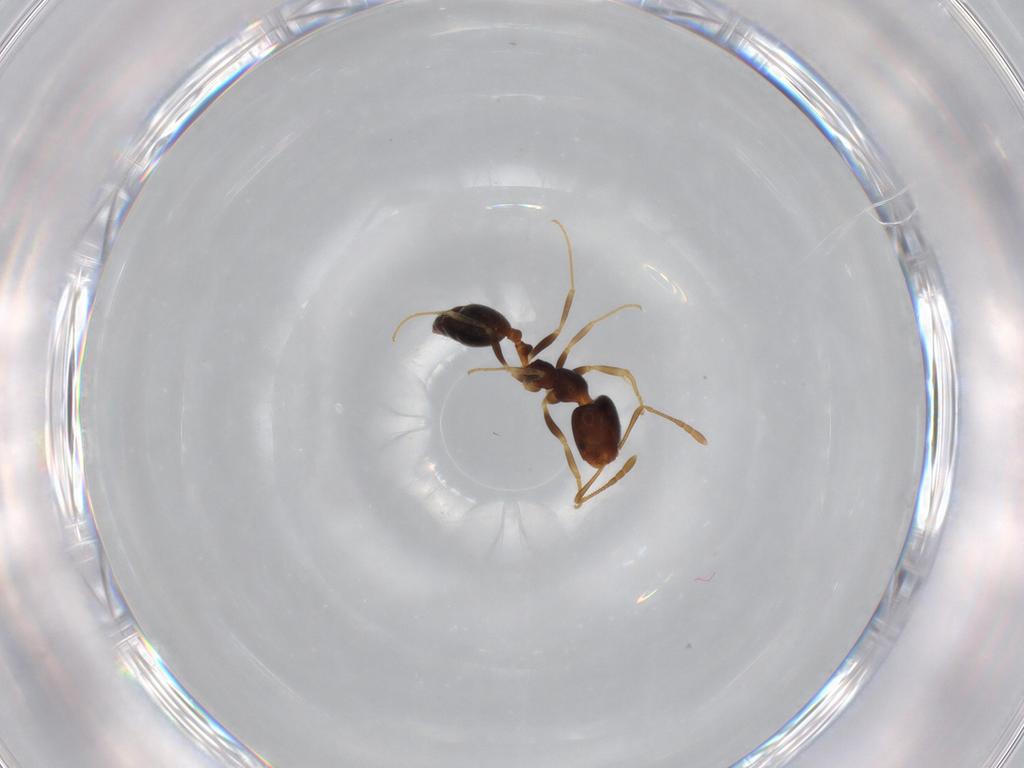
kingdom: Animalia
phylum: Arthropoda
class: Insecta
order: Hymenoptera
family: Formicidae
